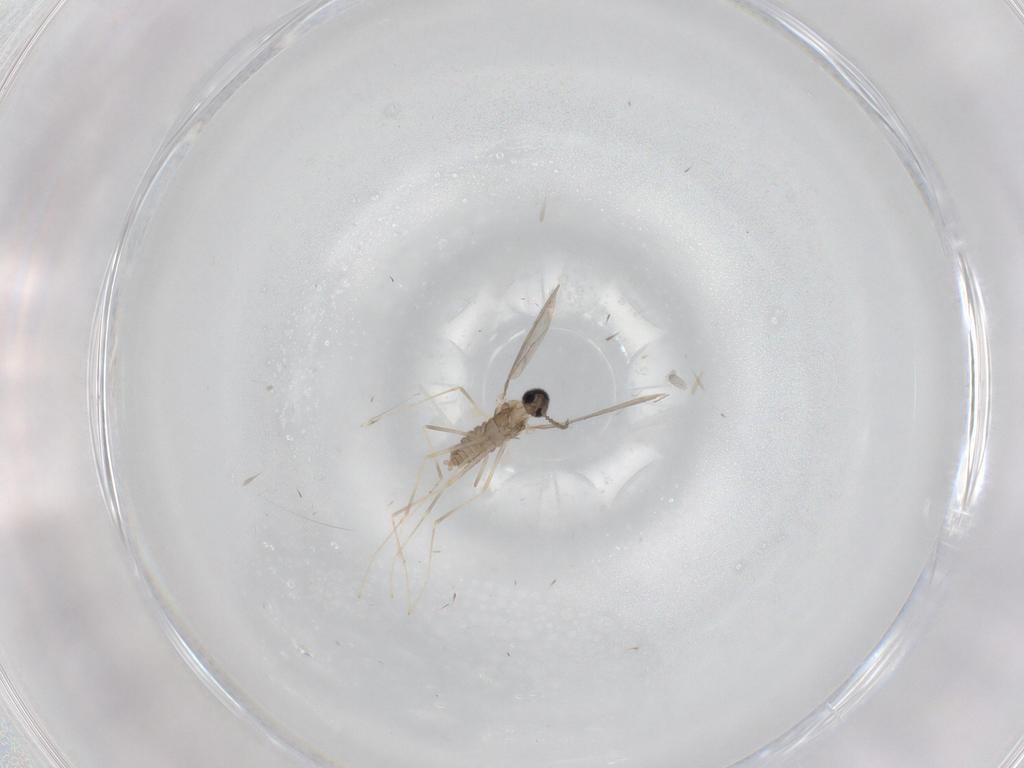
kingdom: Animalia
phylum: Arthropoda
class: Insecta
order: Diptera
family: Cecidomyiidae
